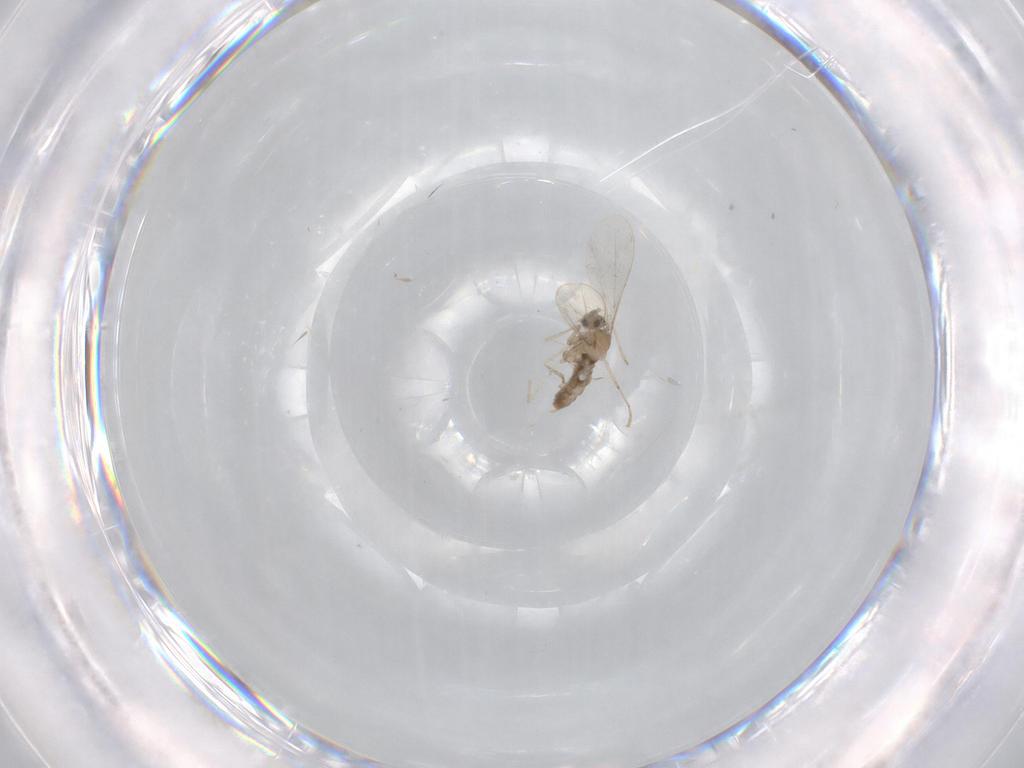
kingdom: Animalia
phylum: Arthropoda
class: Insecta
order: Diptera
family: Cecidomyiidae
